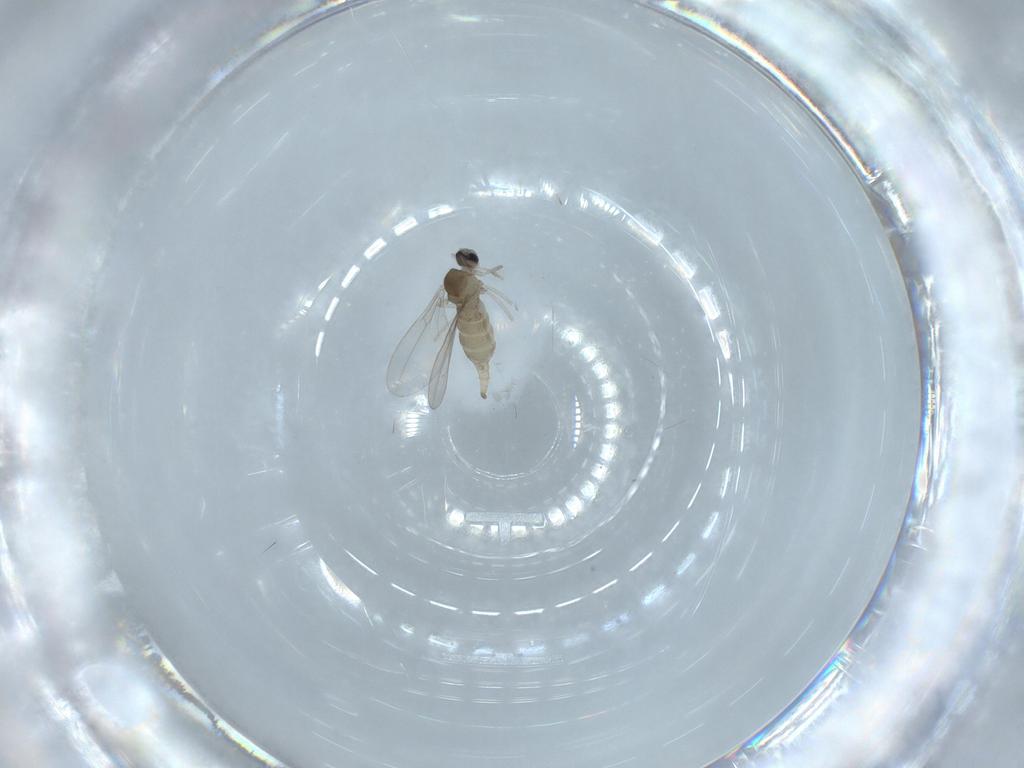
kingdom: Animalia
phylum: Arthropoda
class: Insecta
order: Diptera
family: Cecidomyiidae
